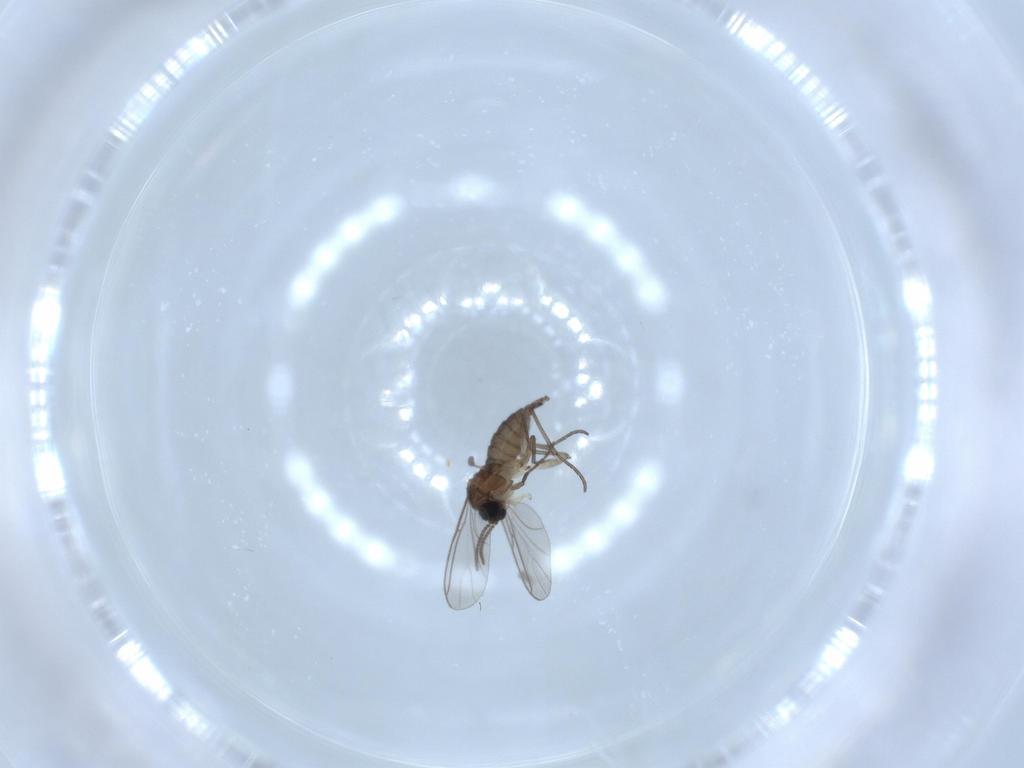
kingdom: Animalia
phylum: Arthropoda
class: Insecta
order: Diptera
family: Sciaridae
